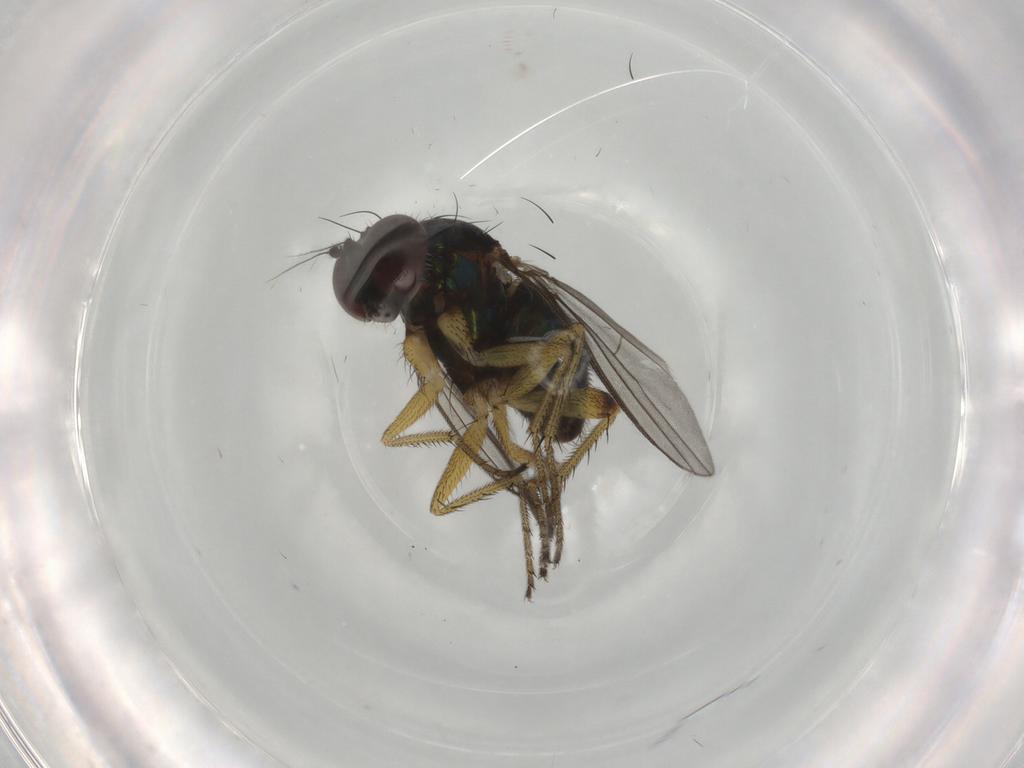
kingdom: Animalia
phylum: Arthropoda
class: Insecta
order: Diptera
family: Dolichopodidae
